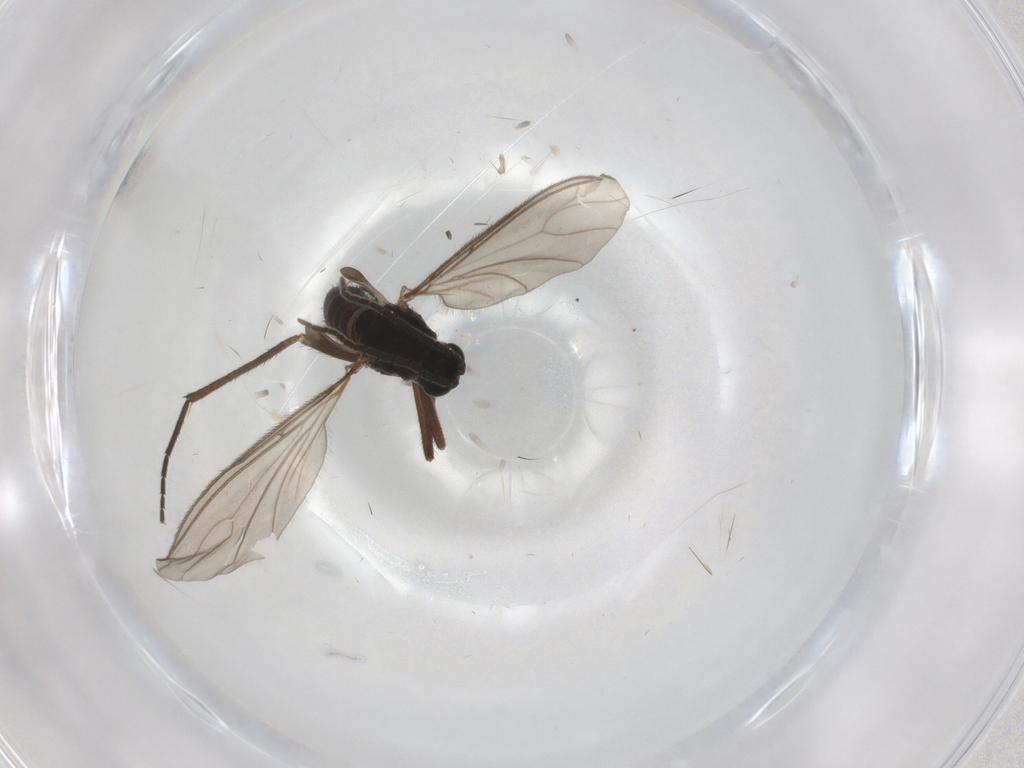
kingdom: Animalia
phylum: Arthropoda
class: Insecta
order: Diptera
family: Sciaridae
